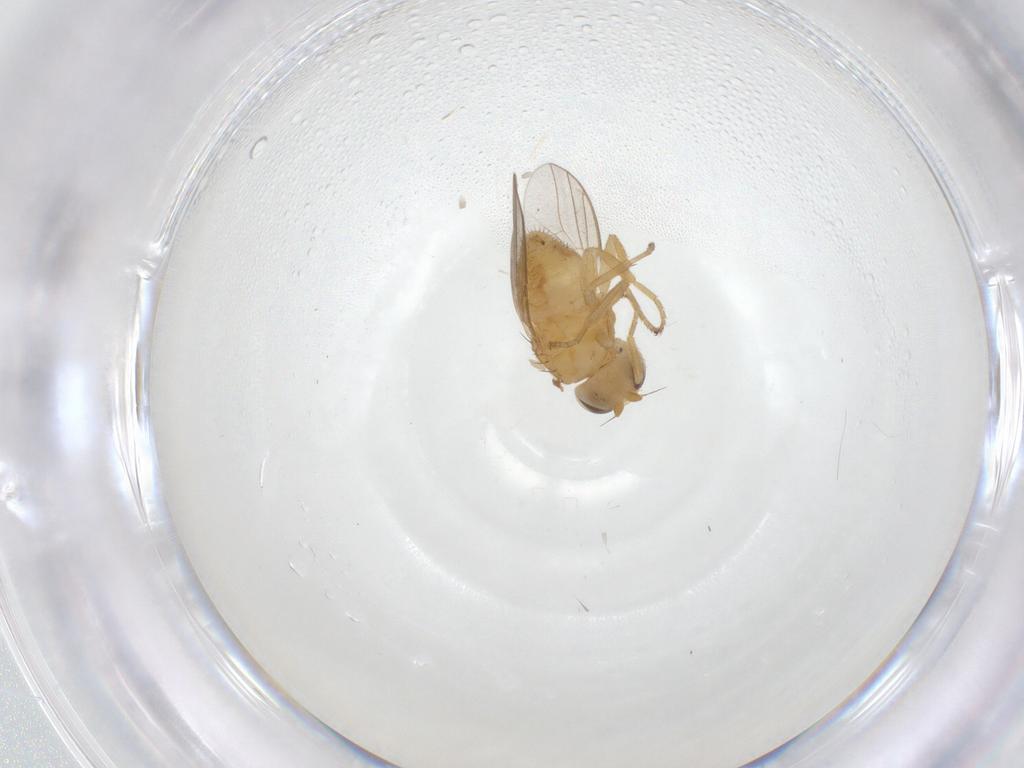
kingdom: Animalia
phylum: Arthropoda
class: Insecta
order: Diptera
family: Chloropidae
